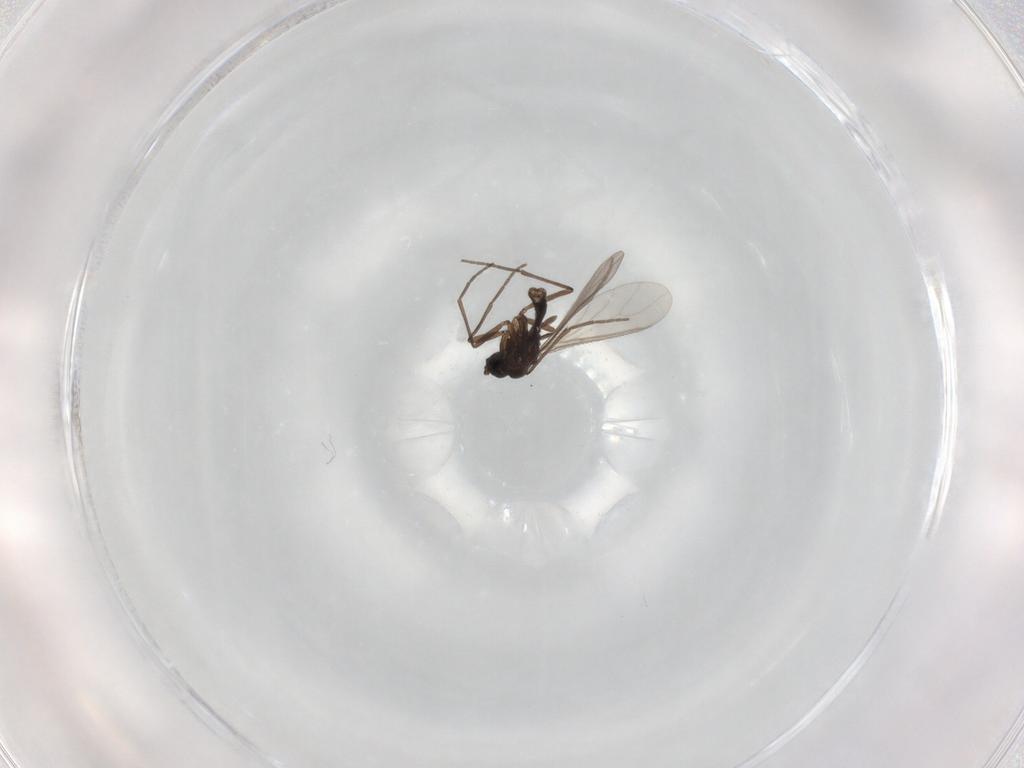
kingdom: Animalia
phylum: Arthropoda
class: Insecta
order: Diptera
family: Sciaridae
